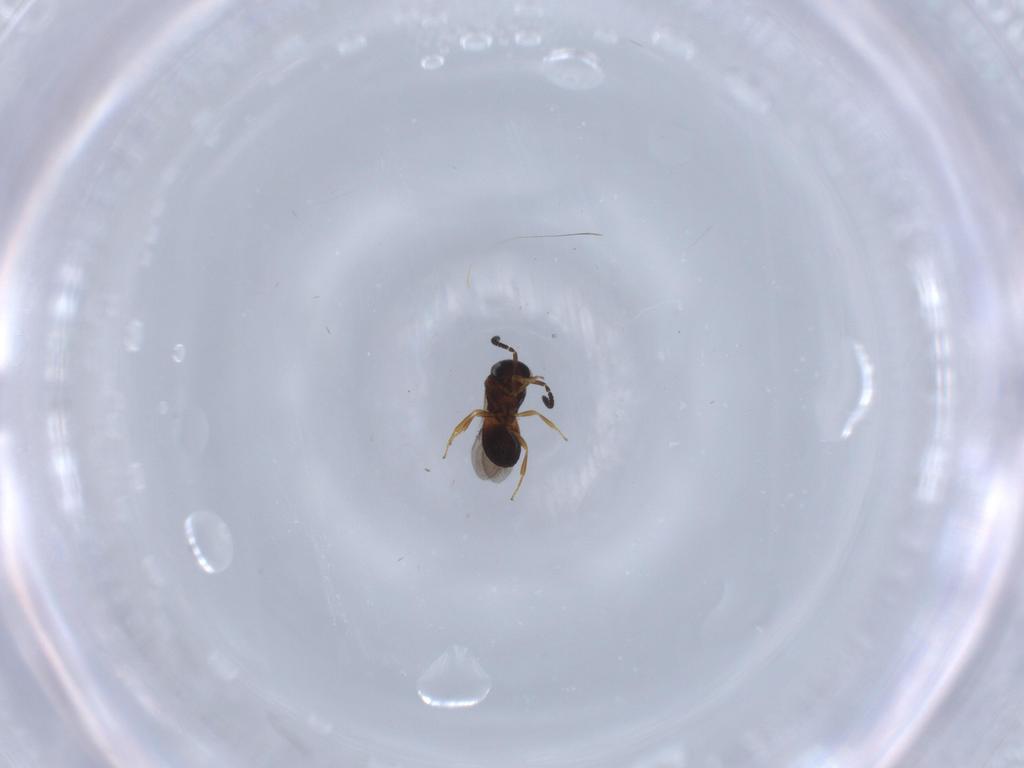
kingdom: Animalia
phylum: Arthropoda
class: Insecta
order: Hymenoptera
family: Scelionidae
